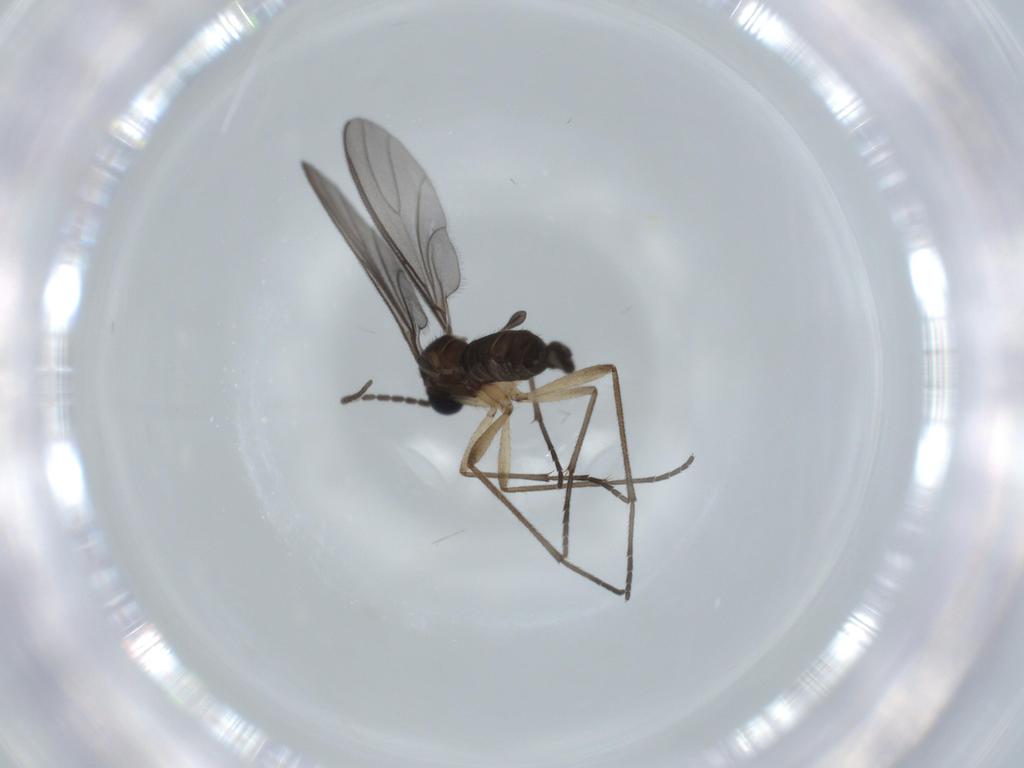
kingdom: Animalia
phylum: Arthropoda
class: Insecta
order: Diptera
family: Sciaridae
